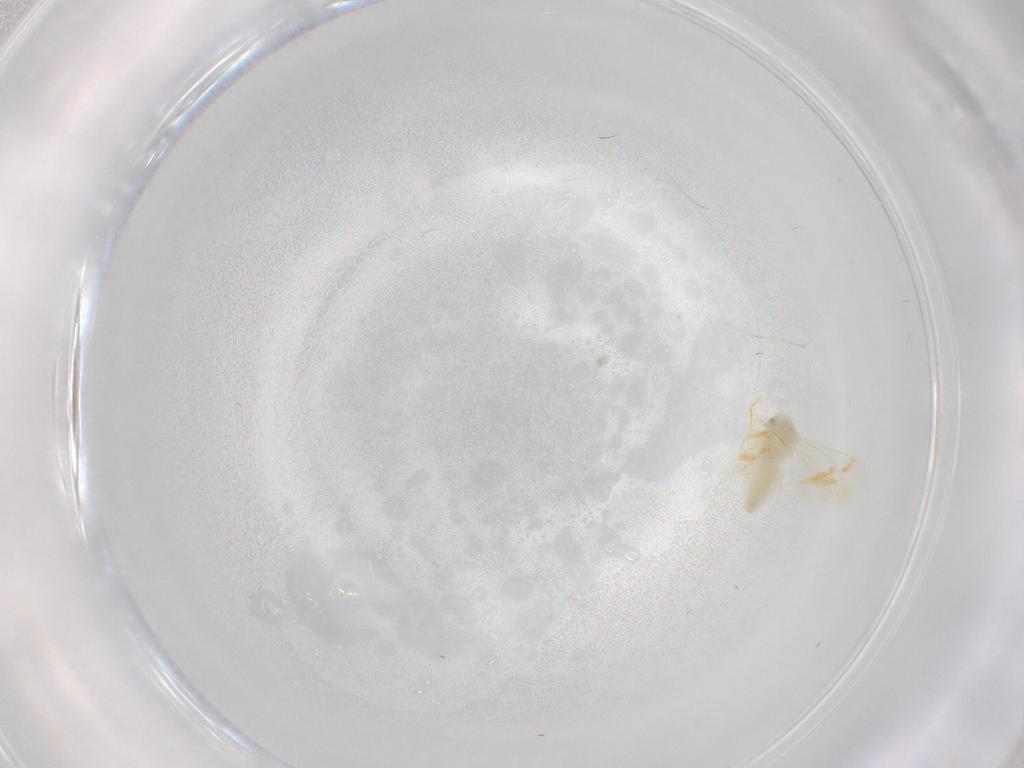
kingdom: Animalia
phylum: Arthropoda
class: Insecta
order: Hemiptera
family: Aleyrodidae
